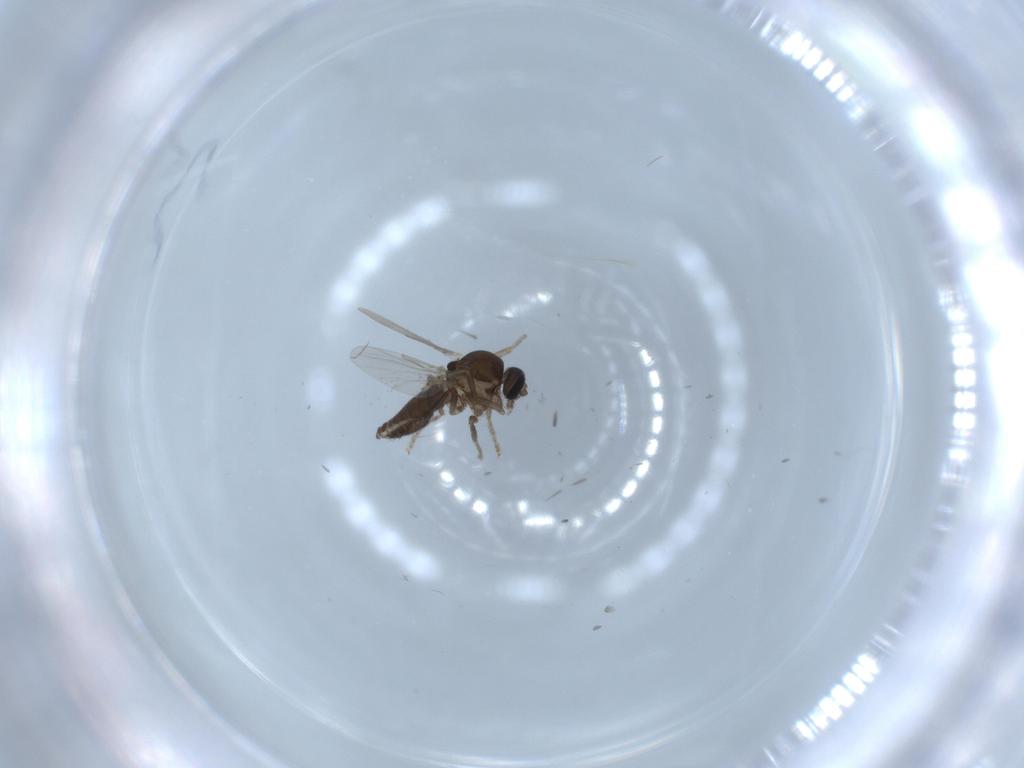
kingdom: Animalia
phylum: Arthropoda
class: Insecta
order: Diptera
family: Ceratopogonidae
